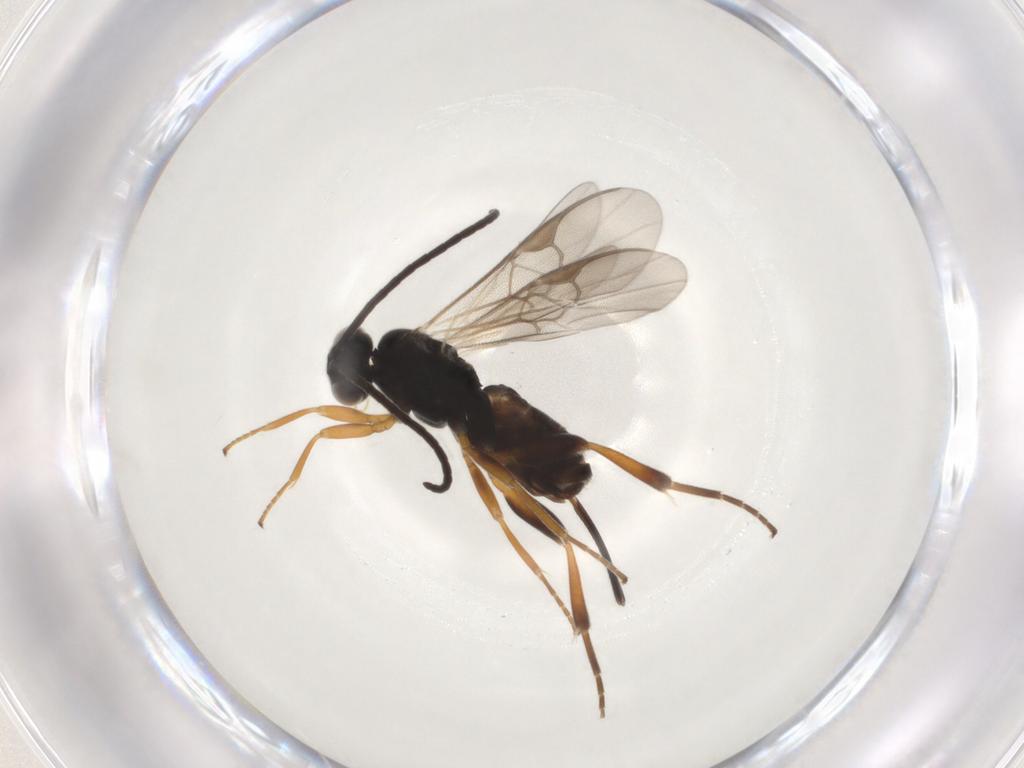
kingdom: Animalia
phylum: Arthropoda
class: Insecta
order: Hymenoptera
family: Braconidae
